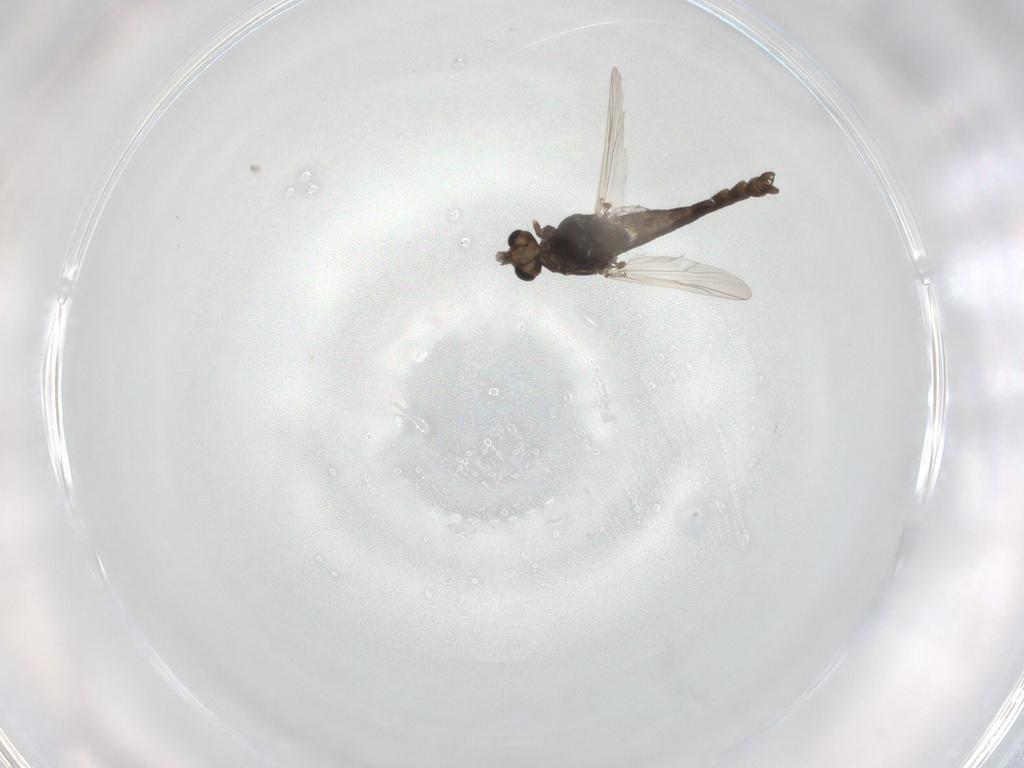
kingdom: Animalia
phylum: Arthropoda
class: Insecta
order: Diptera
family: Chironomidae
